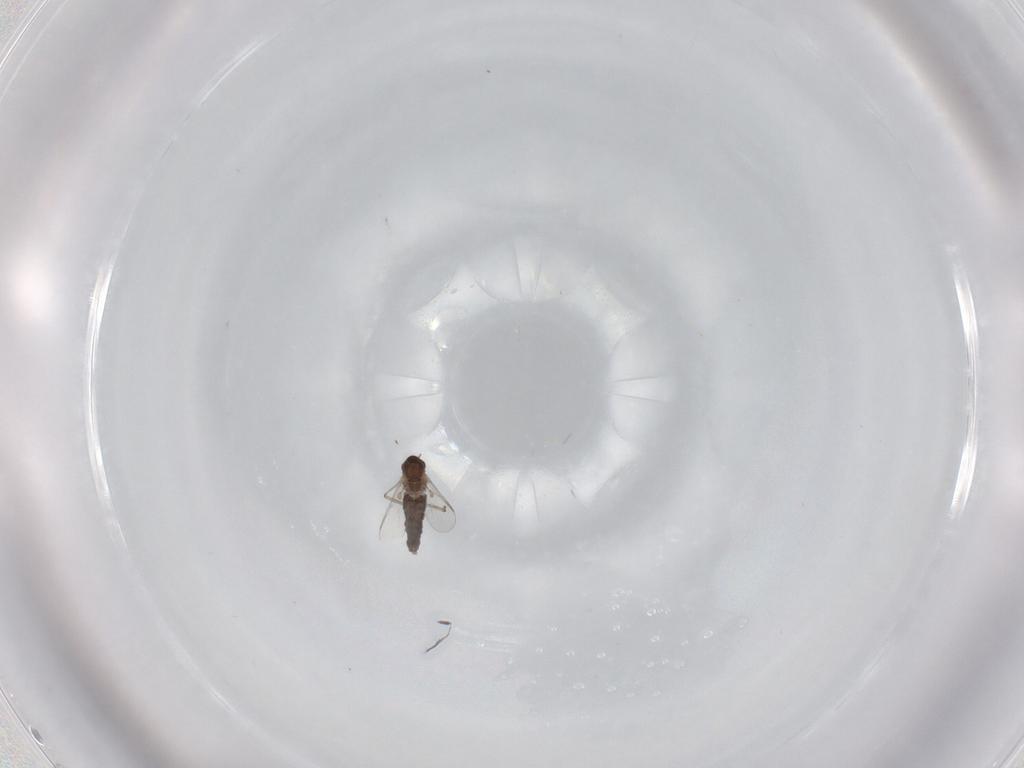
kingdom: Animalia
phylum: Arthropoda
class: Insecta
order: Diptera
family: Chironomidae
